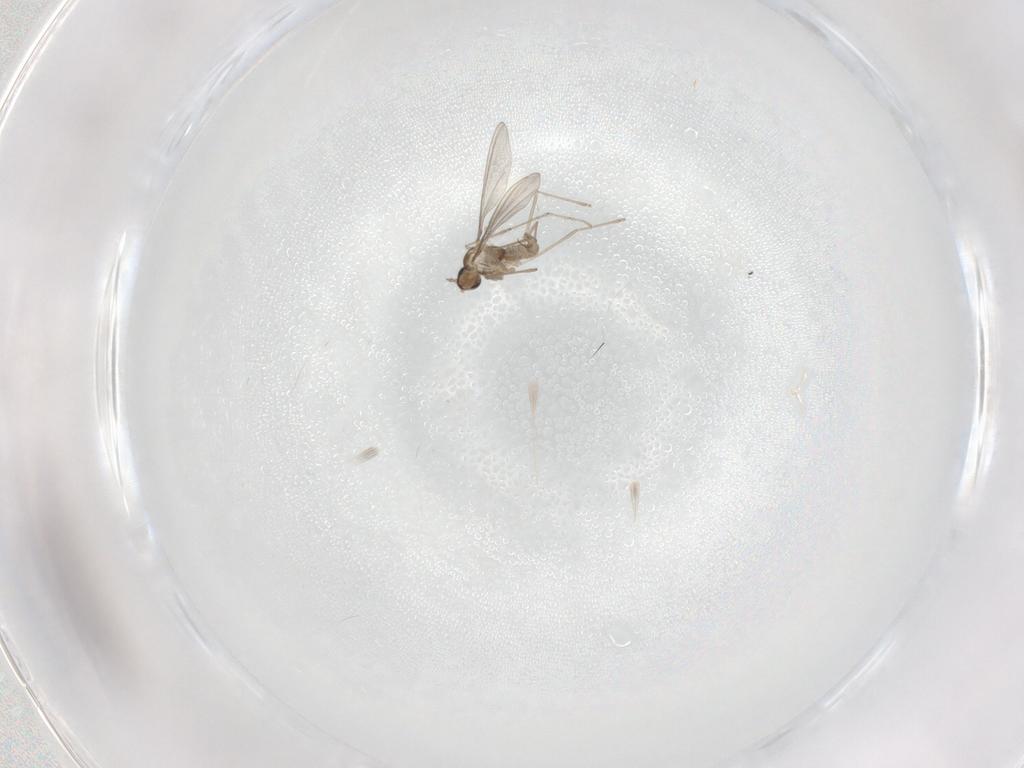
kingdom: Animalia
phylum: Arthropoda
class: Insecta
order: Diptera
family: Cecidomyiidae
